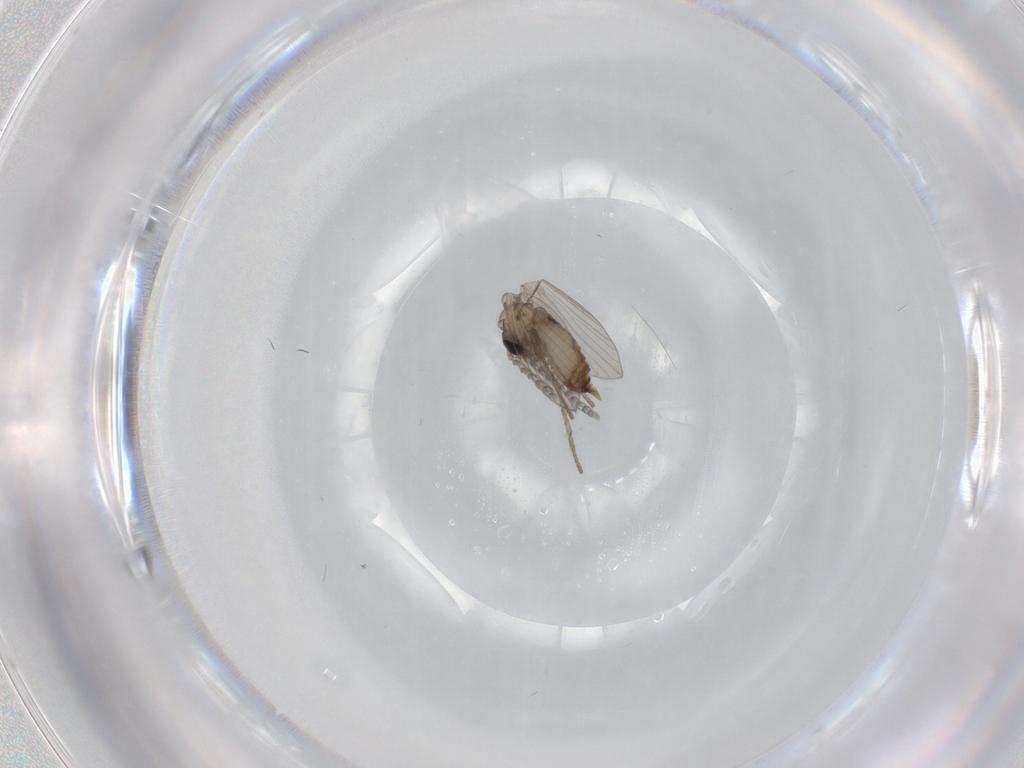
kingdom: Animalia
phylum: Arthropoda
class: Insecta
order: Diptera
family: Psychodidae
